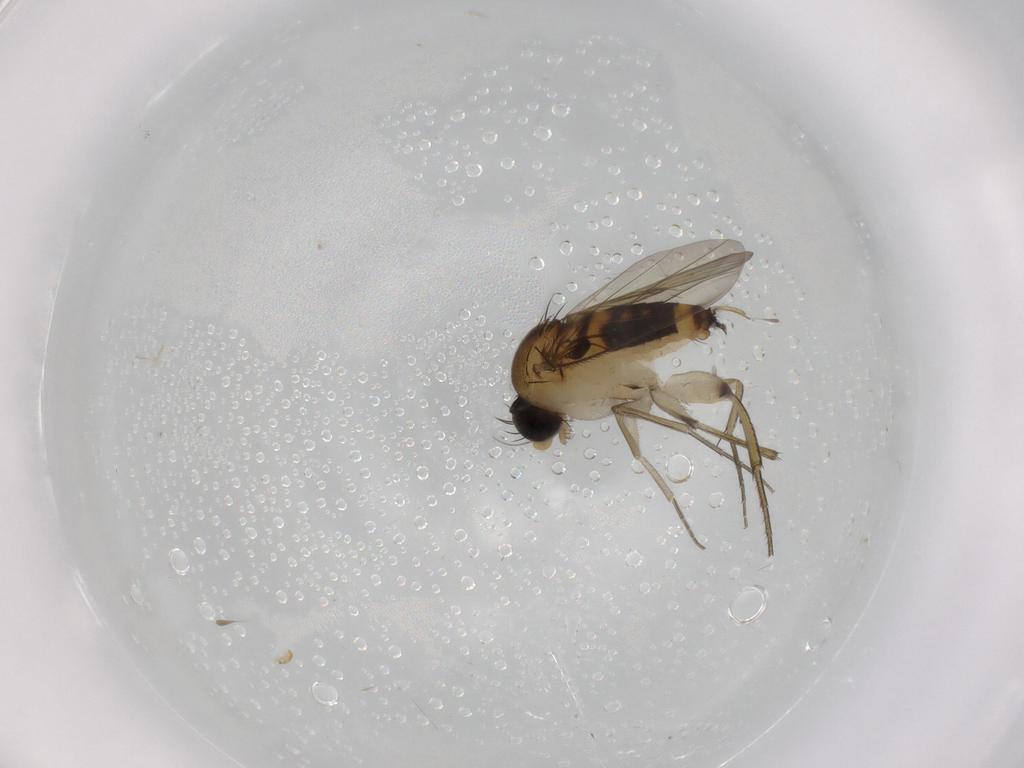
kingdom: Animalia
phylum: Arthropoda
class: Insecta
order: Diptera
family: Phoridae
